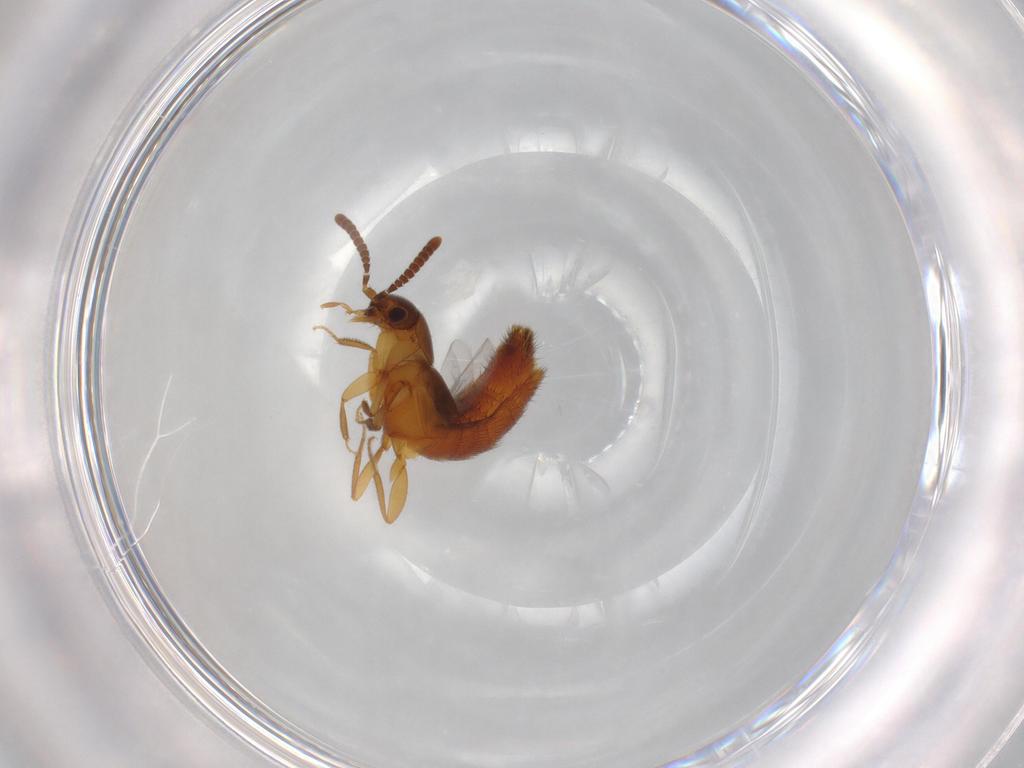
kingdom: Animalia
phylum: Arthropoda
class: Insecta
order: Coleoptera
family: Staphylinidae
